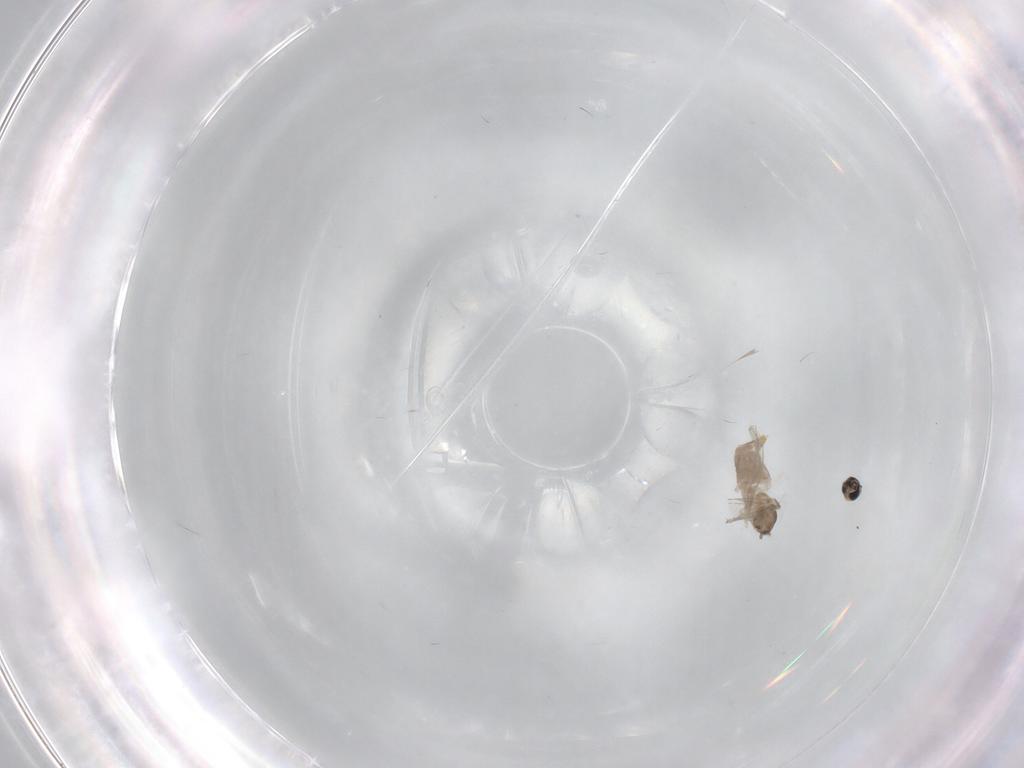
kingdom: Animalia
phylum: Arthropoda
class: Insecta
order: Diptera
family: Cecidomyiidae
